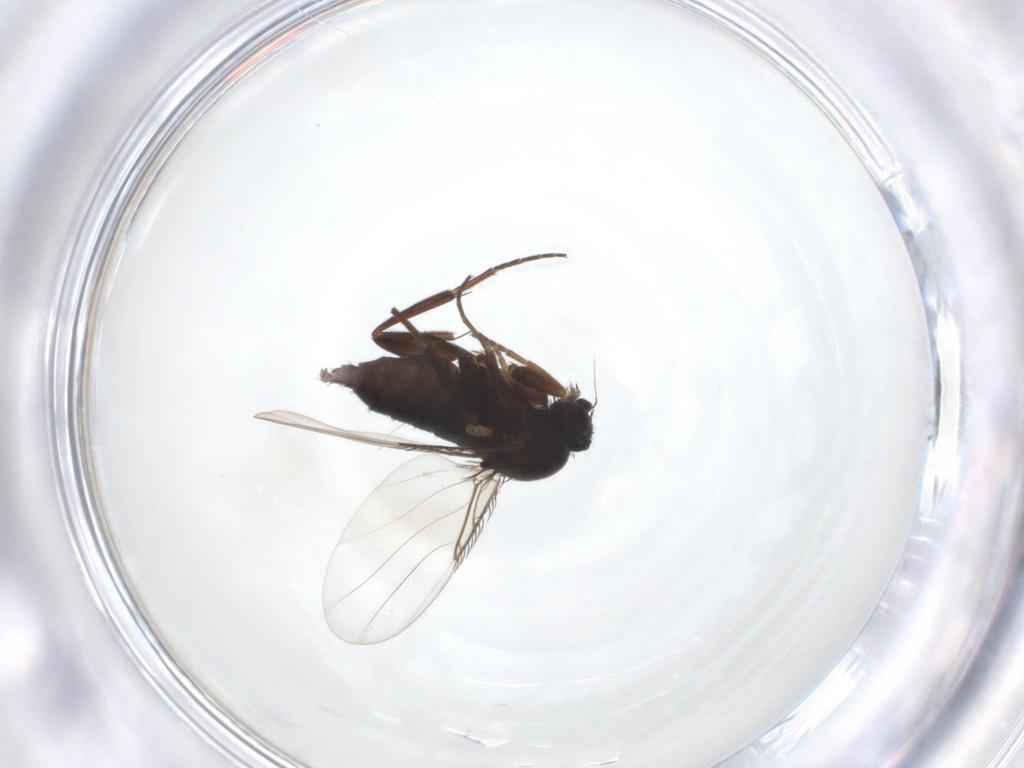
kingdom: Animalia
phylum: Arthropoda
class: Insecta
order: Diptera
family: Phoridae
